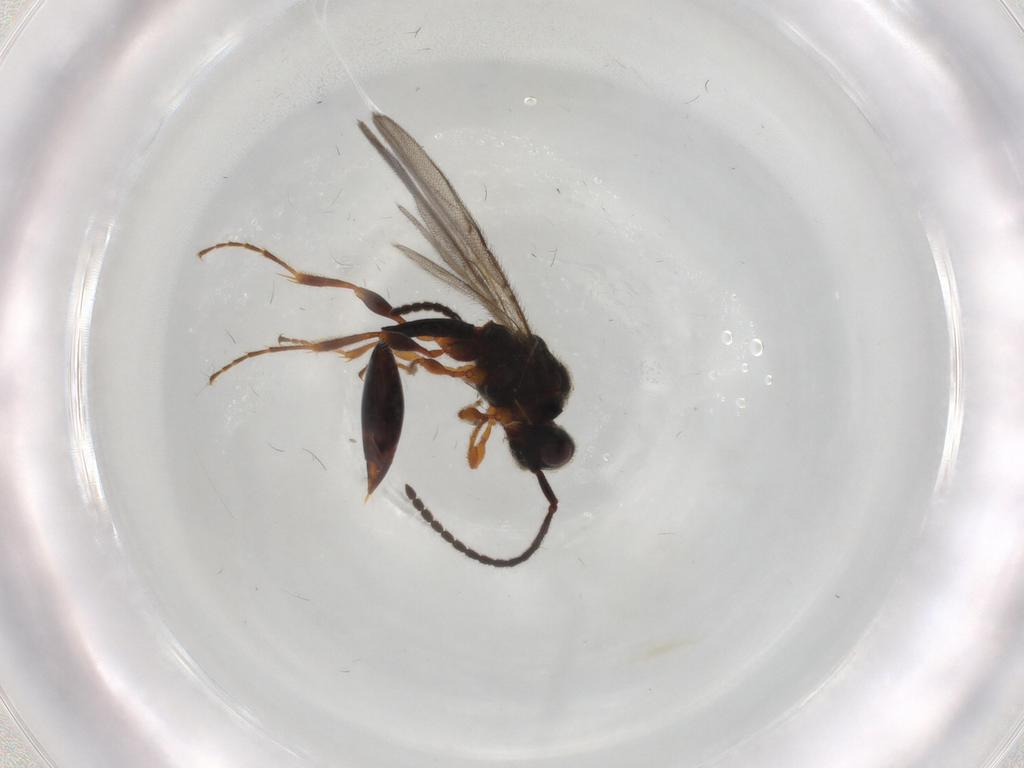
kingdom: Animalia
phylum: Arthropoda
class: Insecta
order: Hymenoptera
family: Diapriidae
